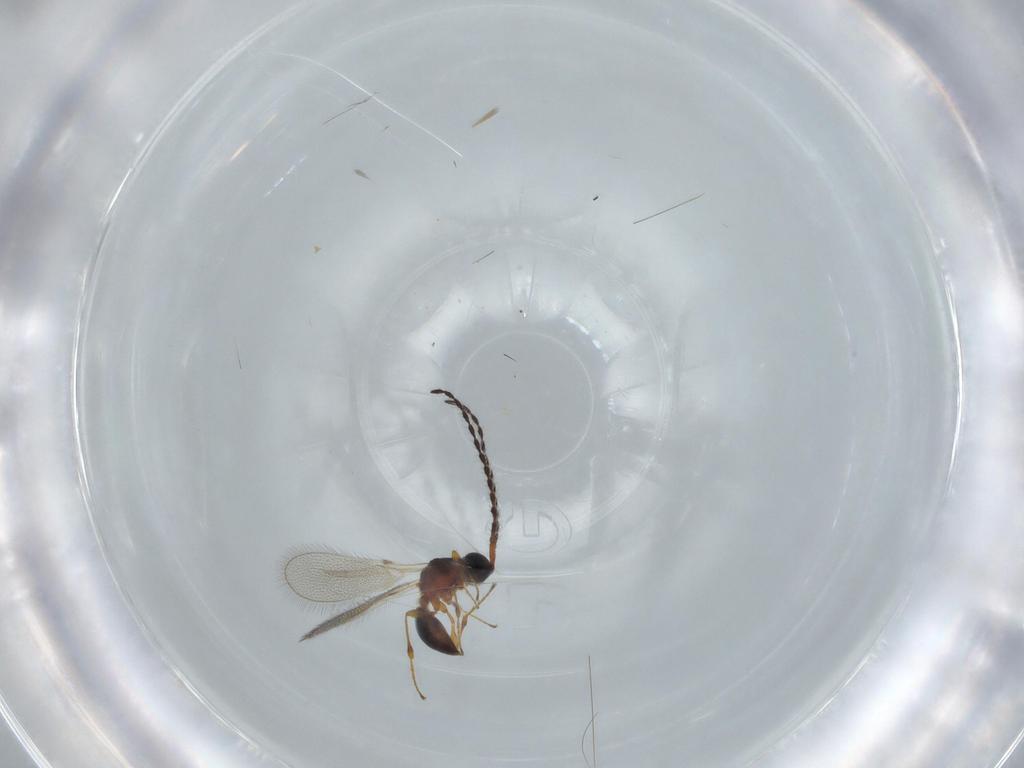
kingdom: Animalia
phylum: Arthropoda
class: Insecta
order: Hymenoptera
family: Diapriidae
